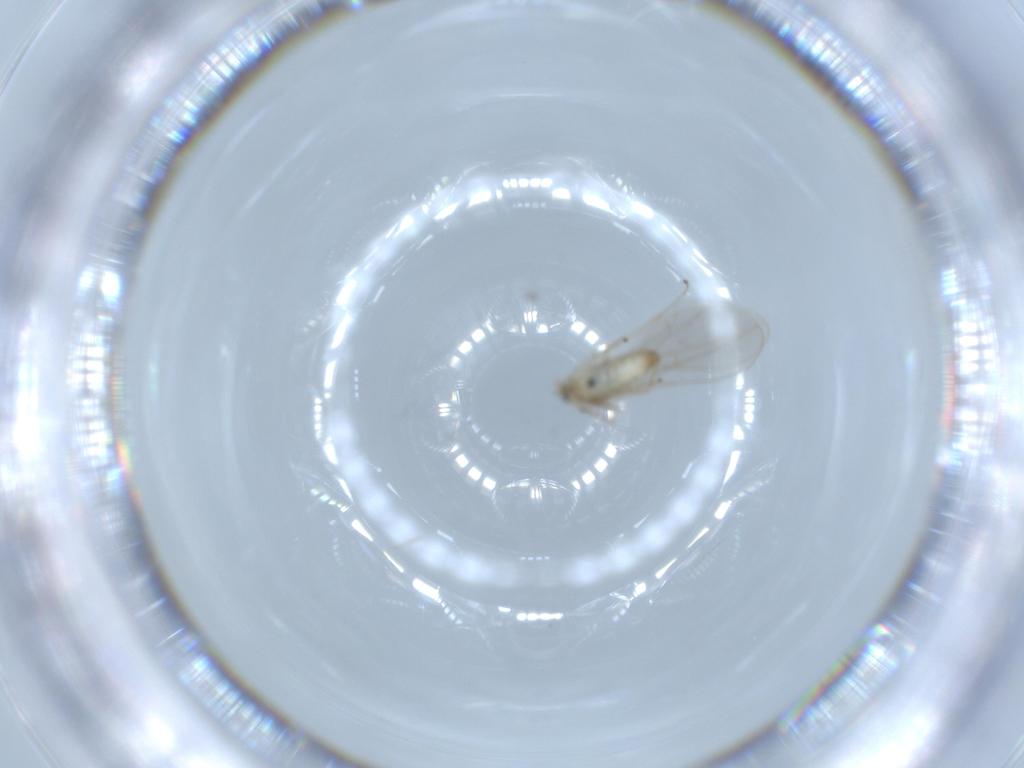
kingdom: Animalia
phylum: Arthropoda
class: Insecta
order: Diptera
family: Cecidomyiidae
